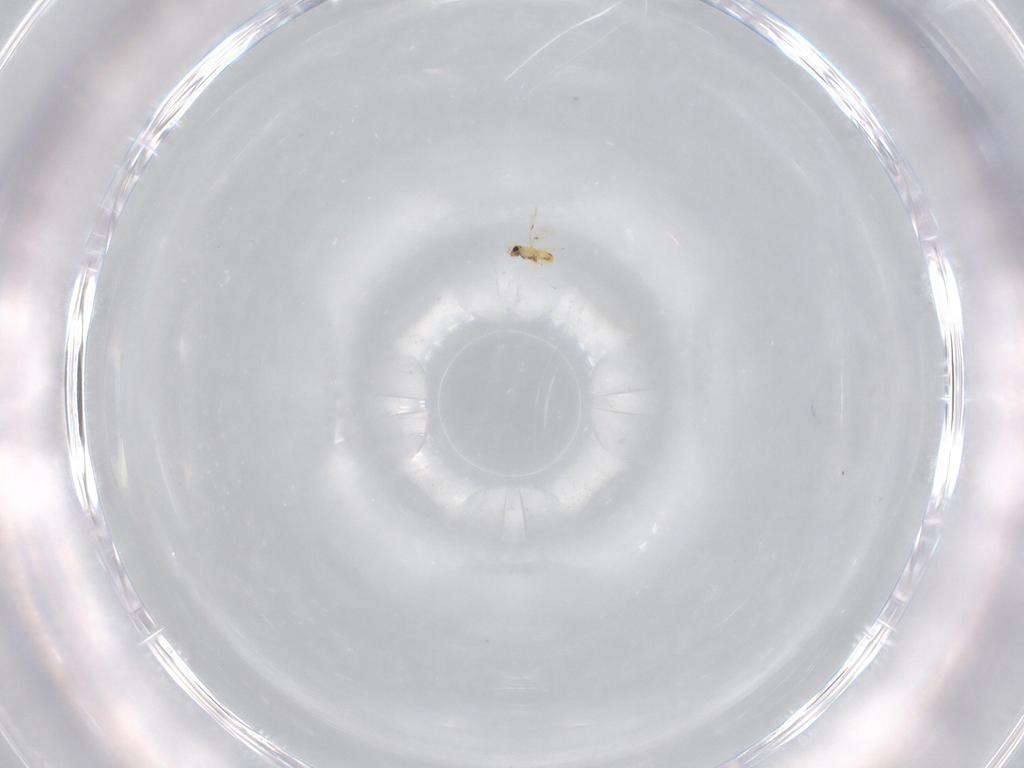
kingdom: Animalia
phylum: Arthropoda
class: Insecta
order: Hymenoptera
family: Trichogrammatidae
